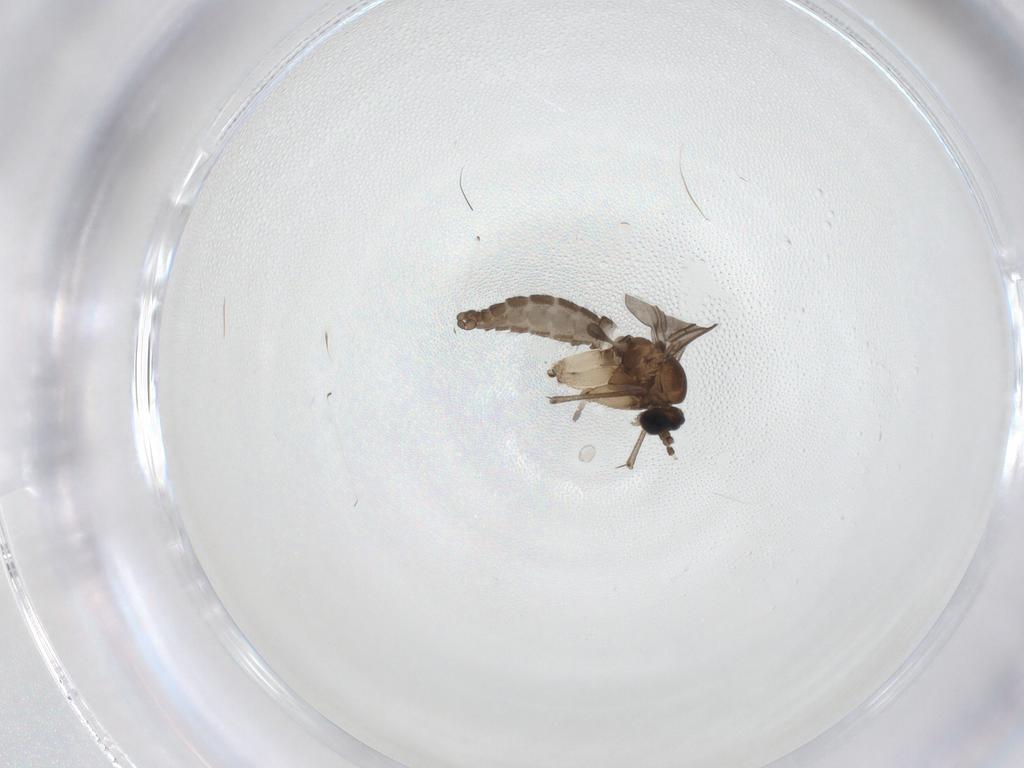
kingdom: Animalia
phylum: Arthropoda
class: Insecta
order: Diptera
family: Sciaridae
